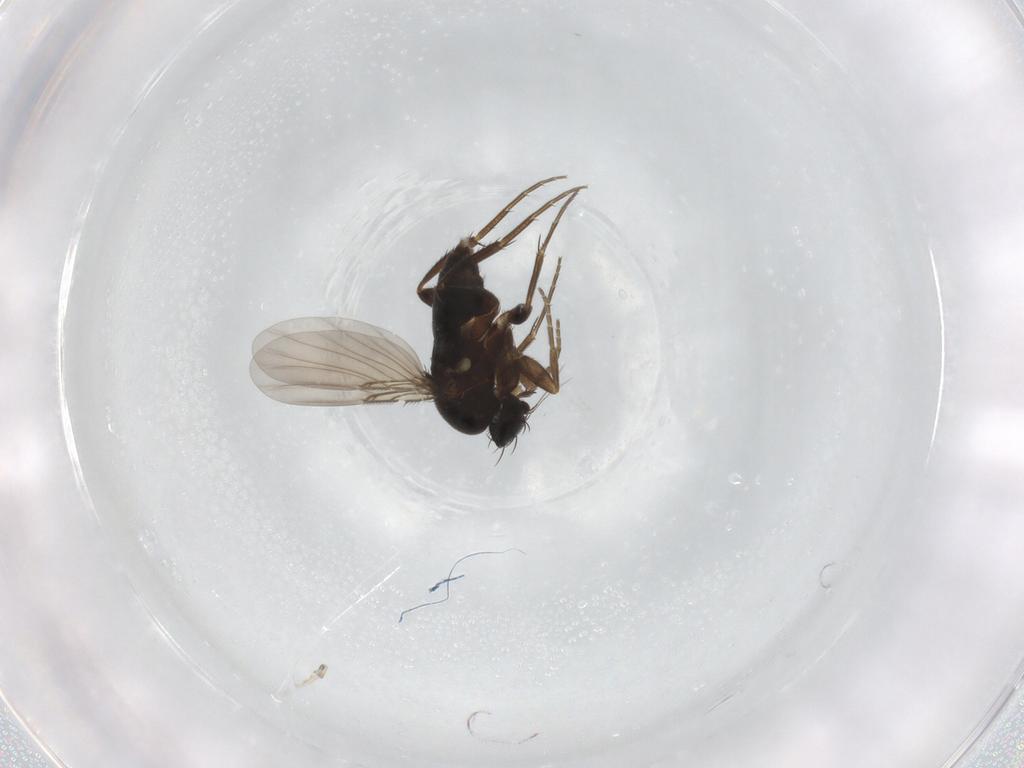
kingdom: Animalia
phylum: Arthropoda
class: Insecta
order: Diptera
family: Phoridae
